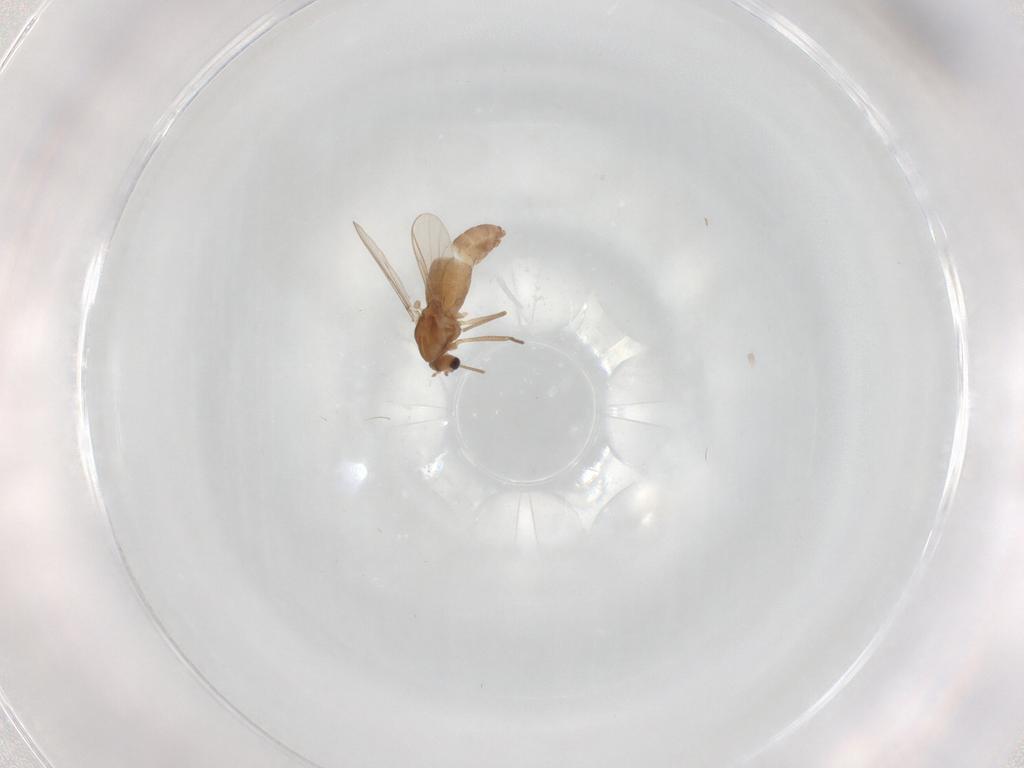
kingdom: Animalia
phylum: Arthropoda
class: Insecta
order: Diptera
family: Chironomidae
